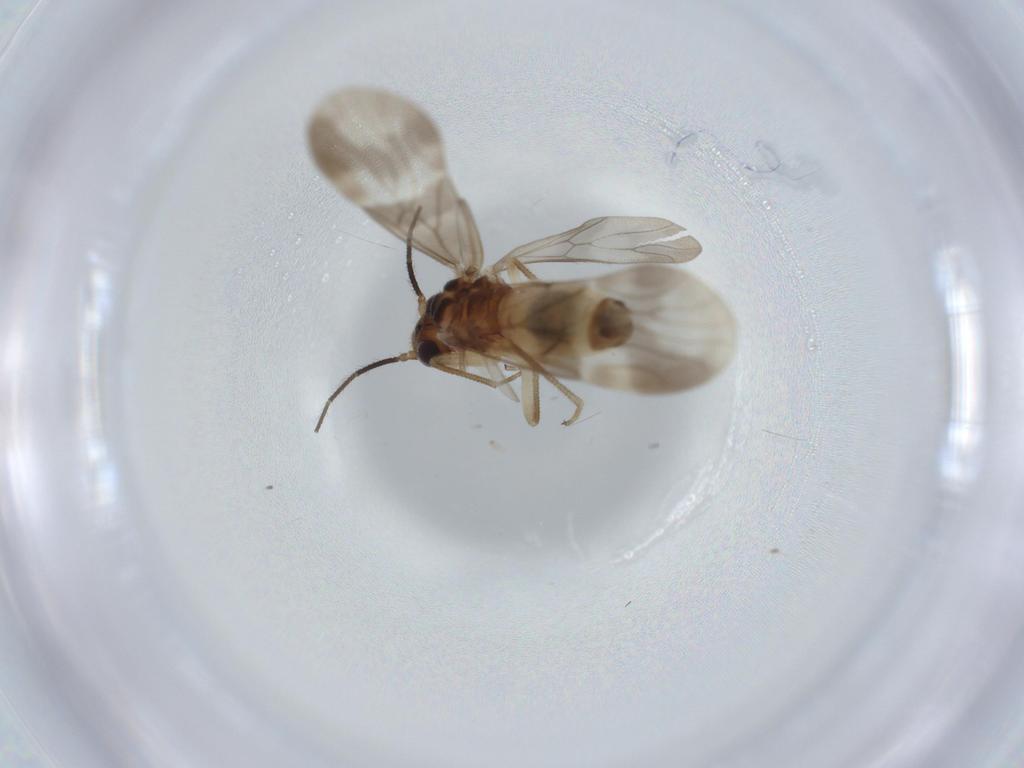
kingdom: Animalia
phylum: Arthropoda
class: Insecta
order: Psocodea
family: Amphipsocidae
